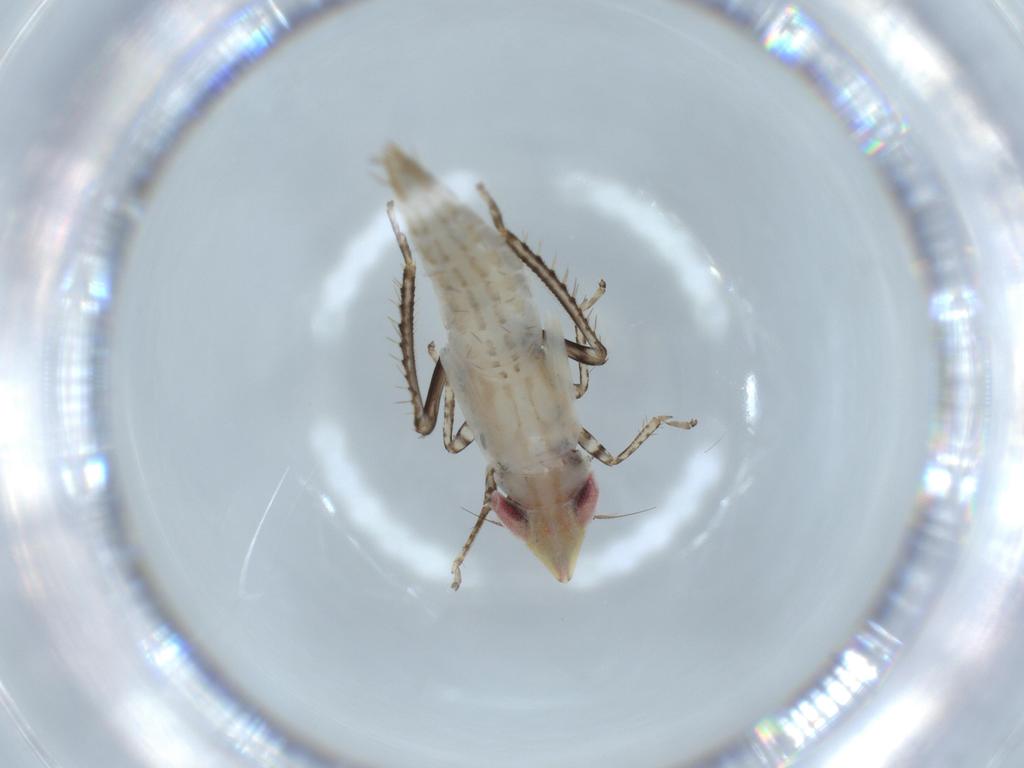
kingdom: Animalia
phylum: Arthropoda
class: Insecta
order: Hemiptera
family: Cicadellidae
